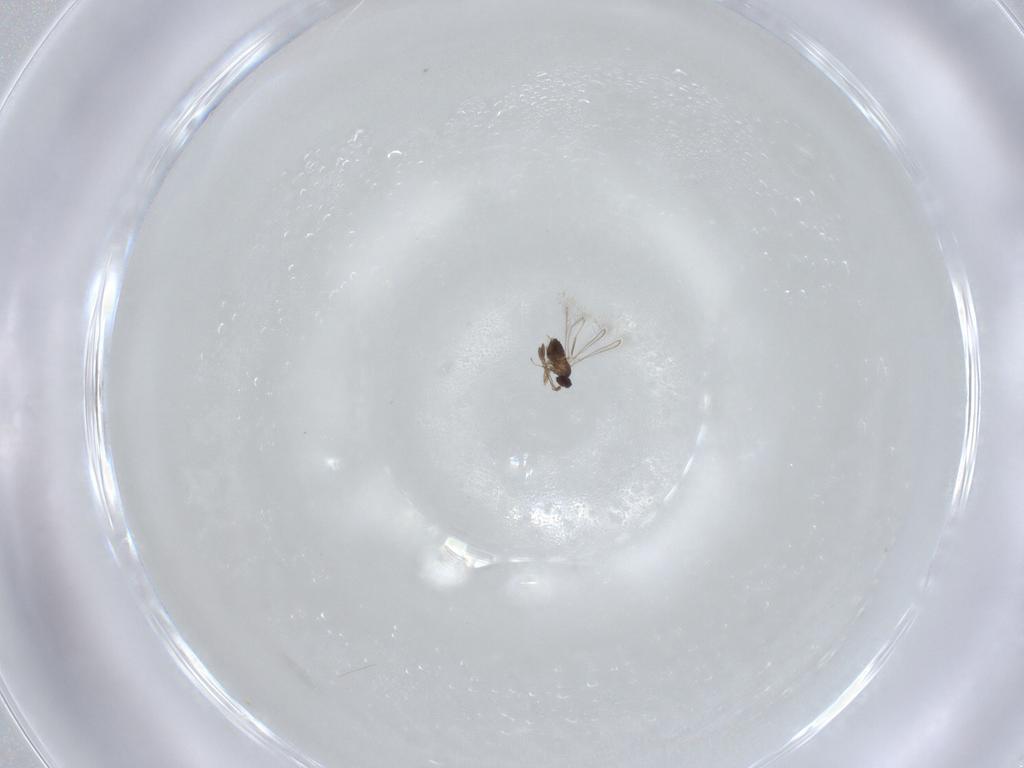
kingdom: Animalia
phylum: Arthropoda
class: Insecta
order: Hymenoptera
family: Mymaridae
